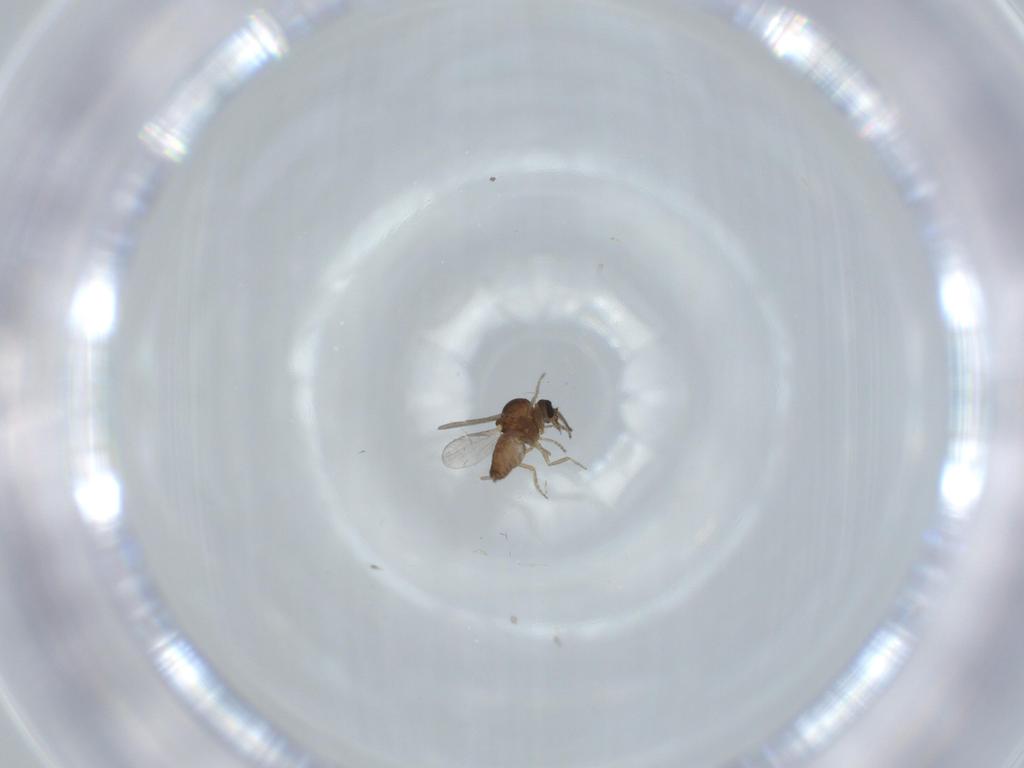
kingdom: Animalia
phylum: Arthropoda
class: Insecta
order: Diptera
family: Ceratopogonidae
